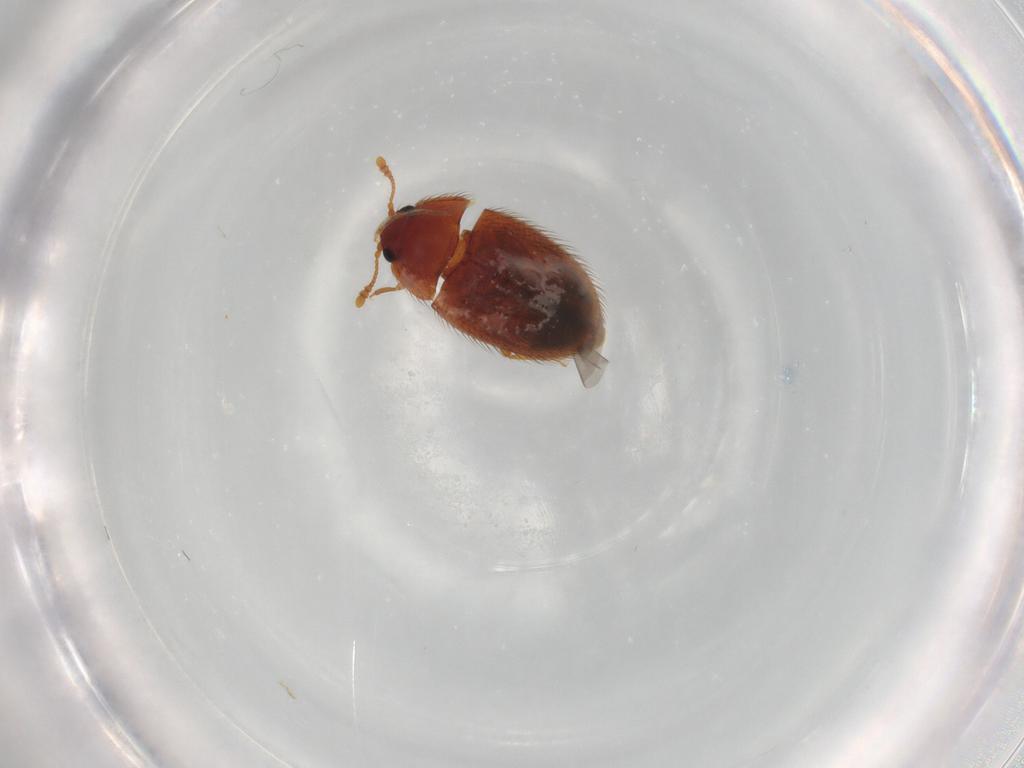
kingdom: Animalia
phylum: Arthropoda
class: Insecta
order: Coleoptera
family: Biphyllidae
